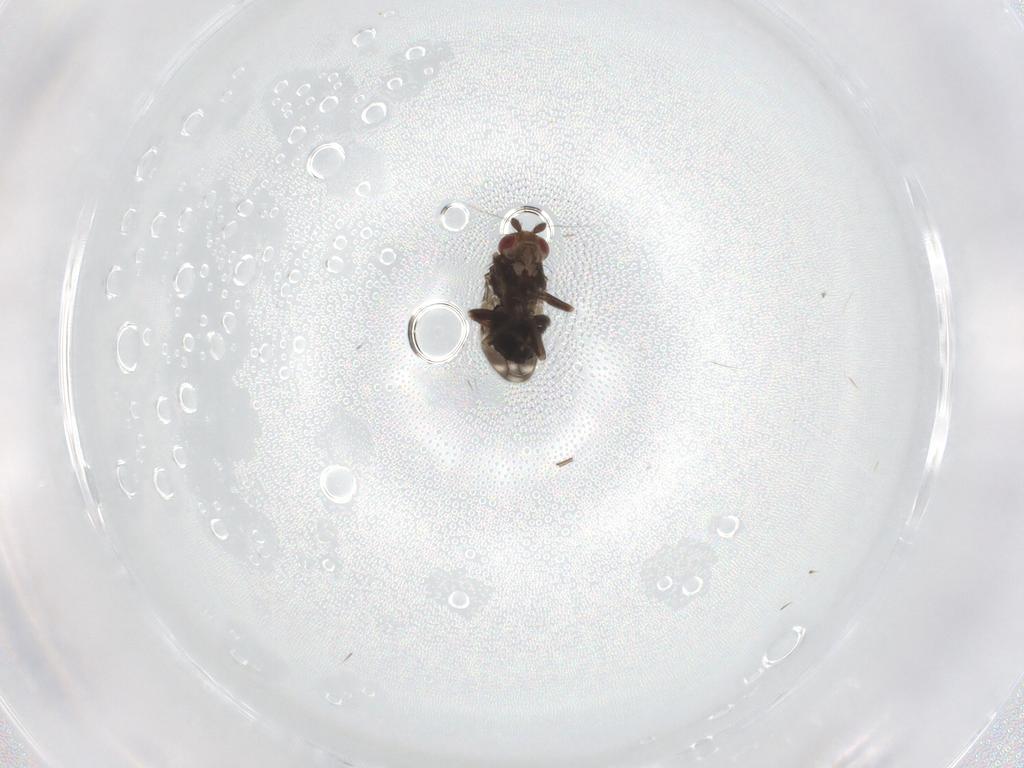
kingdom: Animalia
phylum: Arthropoda
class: Insecta
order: Diptera
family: Sphaeroceridae
